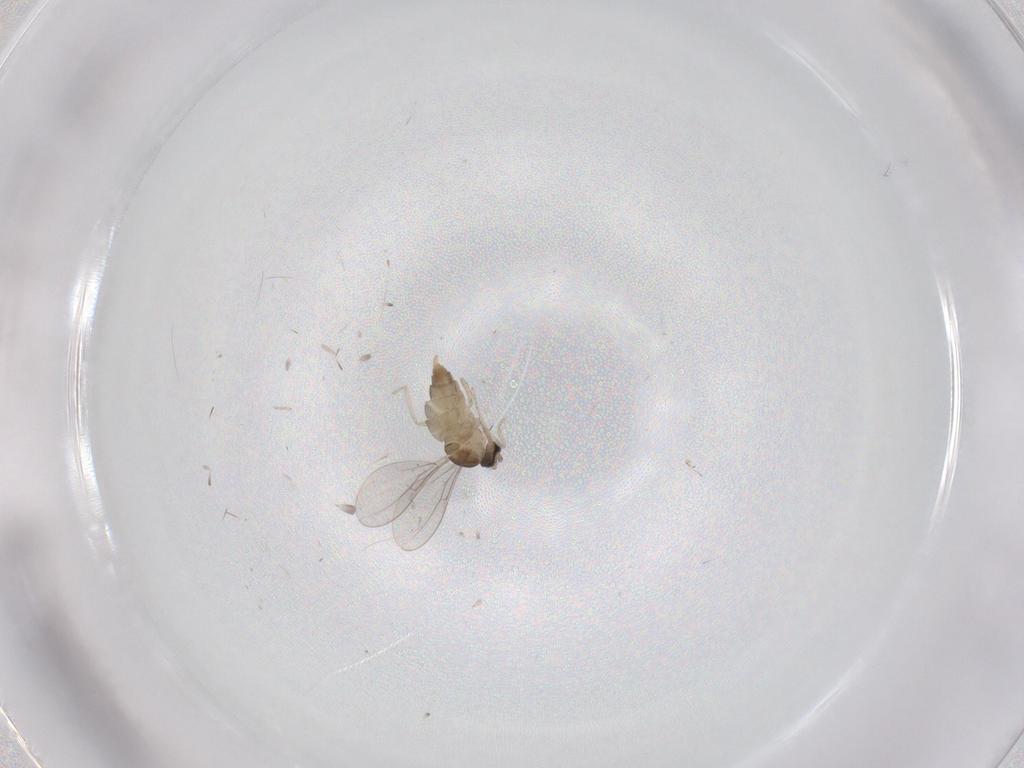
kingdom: Animalia
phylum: Arthropoda
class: Insecta
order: Diptera
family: Cecidomyiidae
